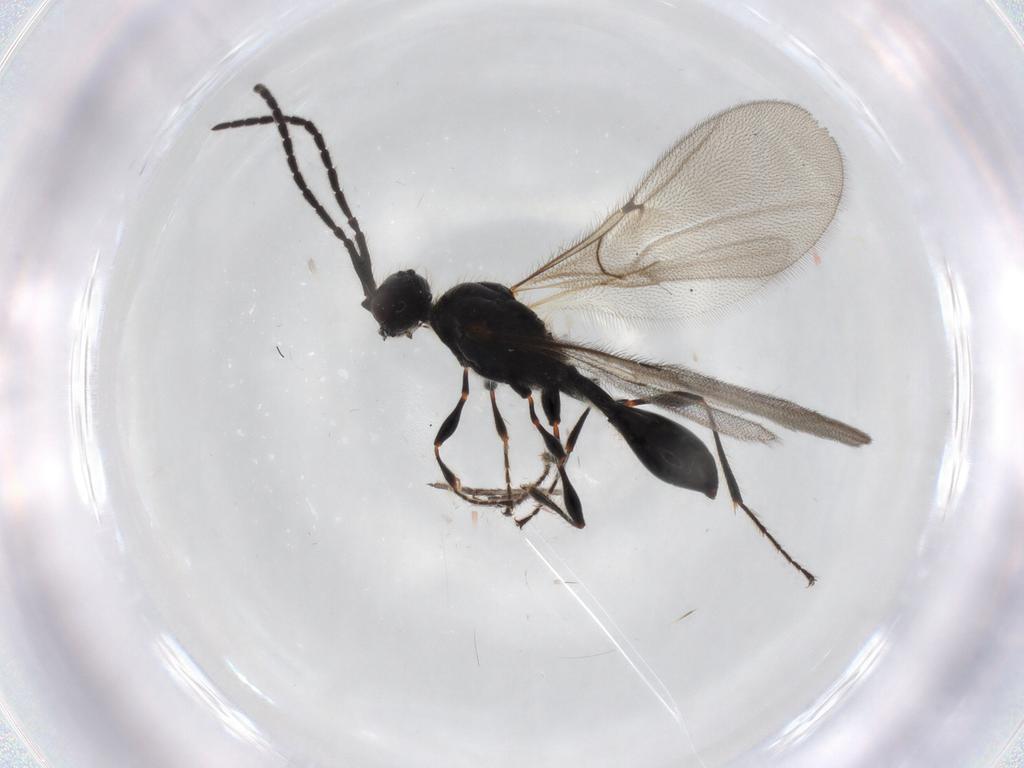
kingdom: Animalia
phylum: Arthropoda
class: Insecta
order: Hymenoptera
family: Diapriidae
